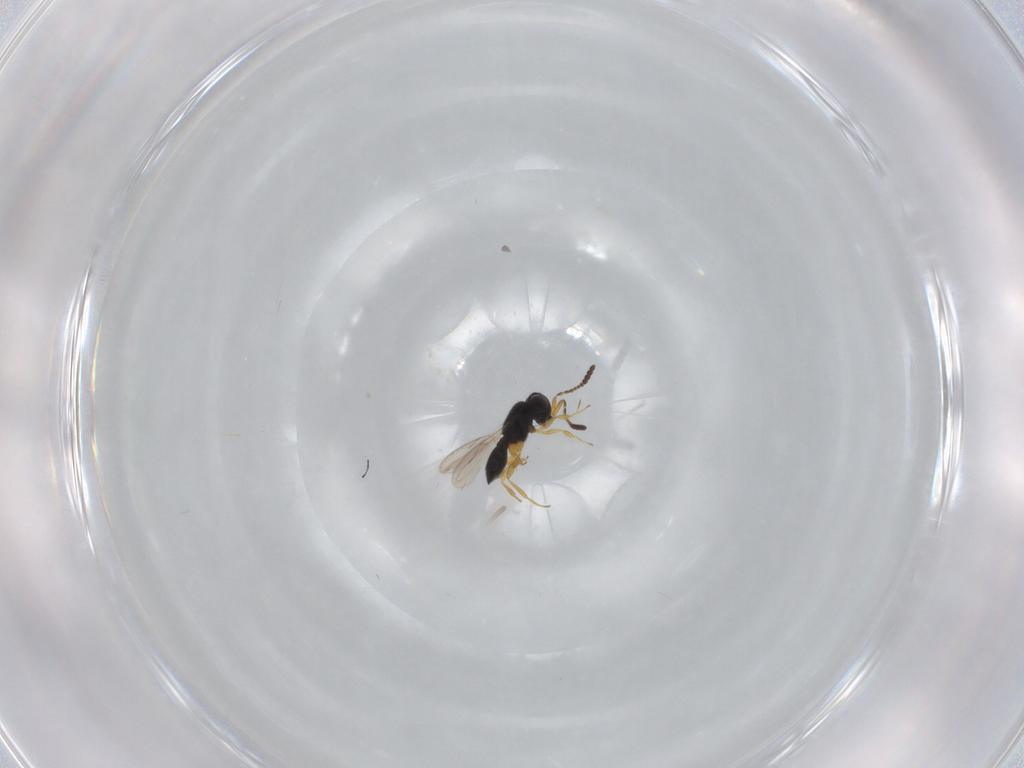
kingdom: Animalia
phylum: Arthropoda
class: Insecta
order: Hymenoptera
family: Scelionidae
